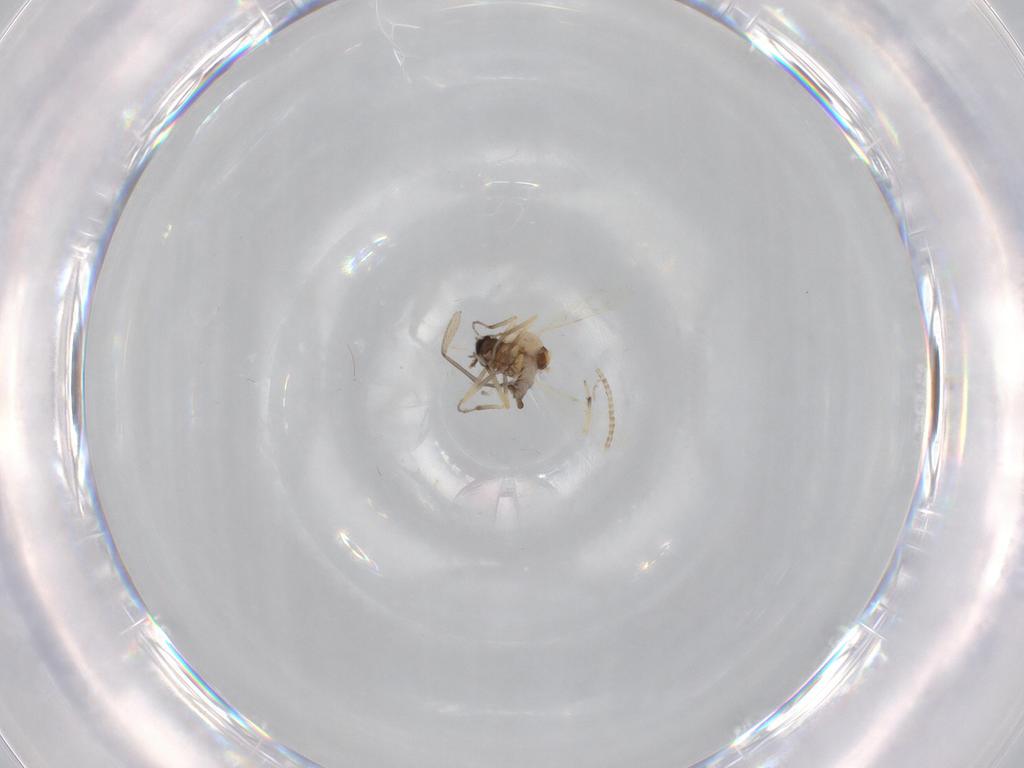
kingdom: Animalia
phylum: Arthropoda
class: Insecta
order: Diptera
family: Ceratopogonidae
